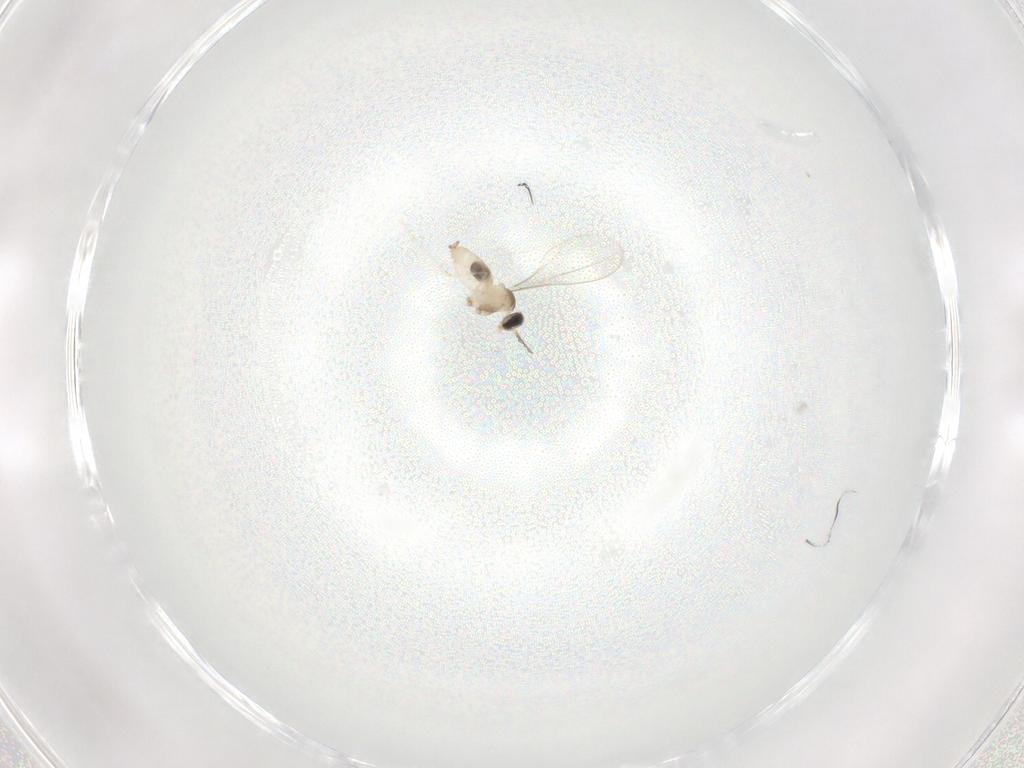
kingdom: Animalia
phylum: Arthropoda
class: Insecta
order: Diptera
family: Cecidomyiidae
